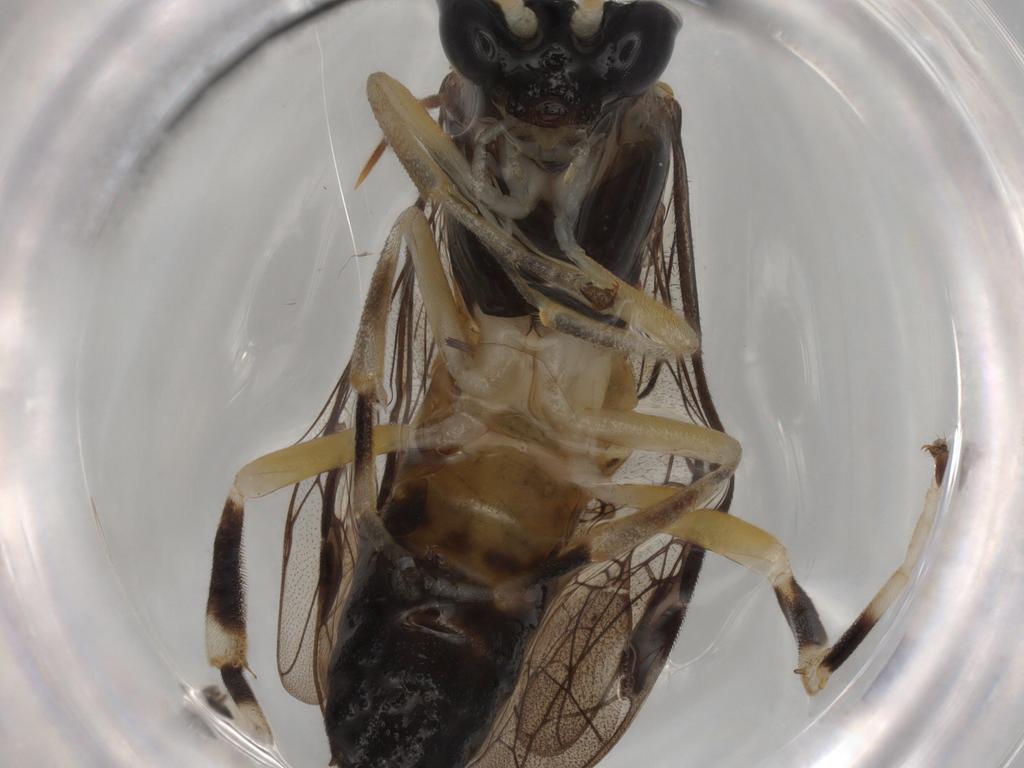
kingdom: Animalia
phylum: Arthropoda
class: Insecta
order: Hymenoptera
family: Tenthredinidae
